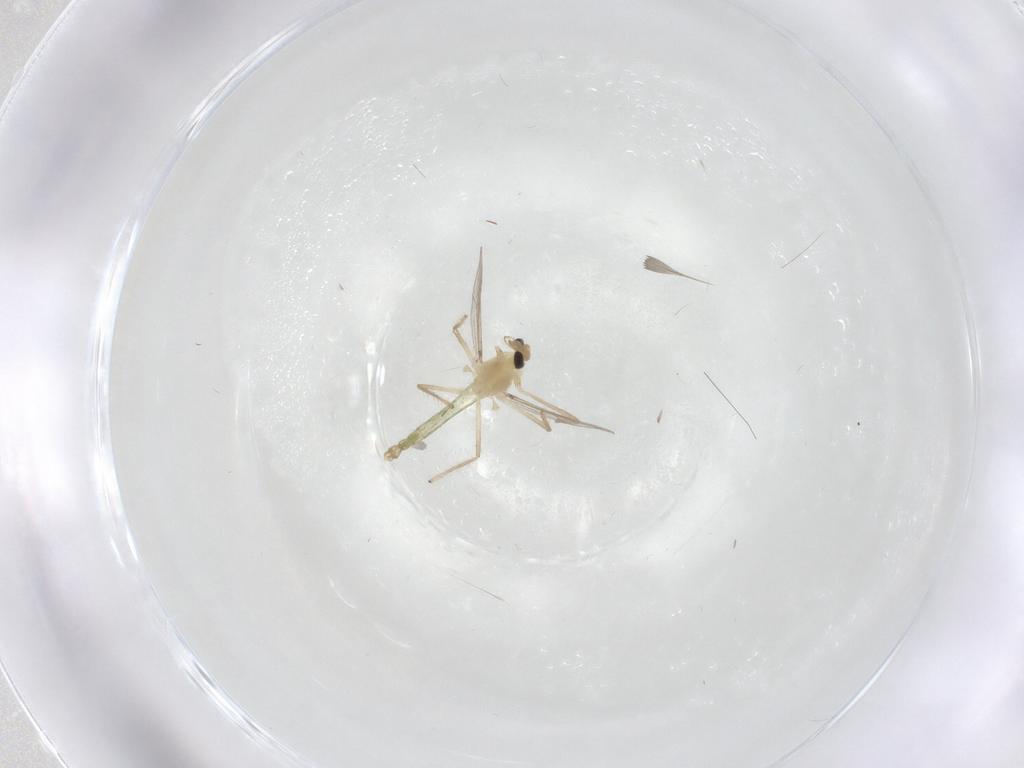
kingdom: Animalia
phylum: Arthropoda
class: Insecta
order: Diptera
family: Chironomidae
